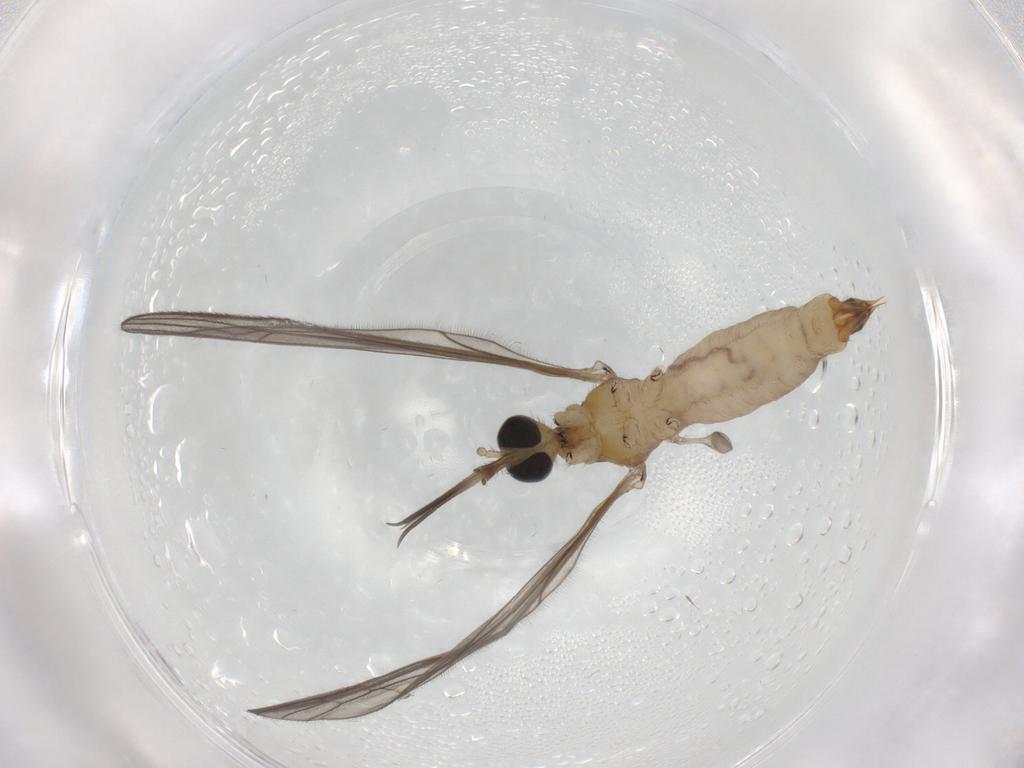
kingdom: Animalia
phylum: Arthropoda
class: Insecta
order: Diptera
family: Limoniidae
